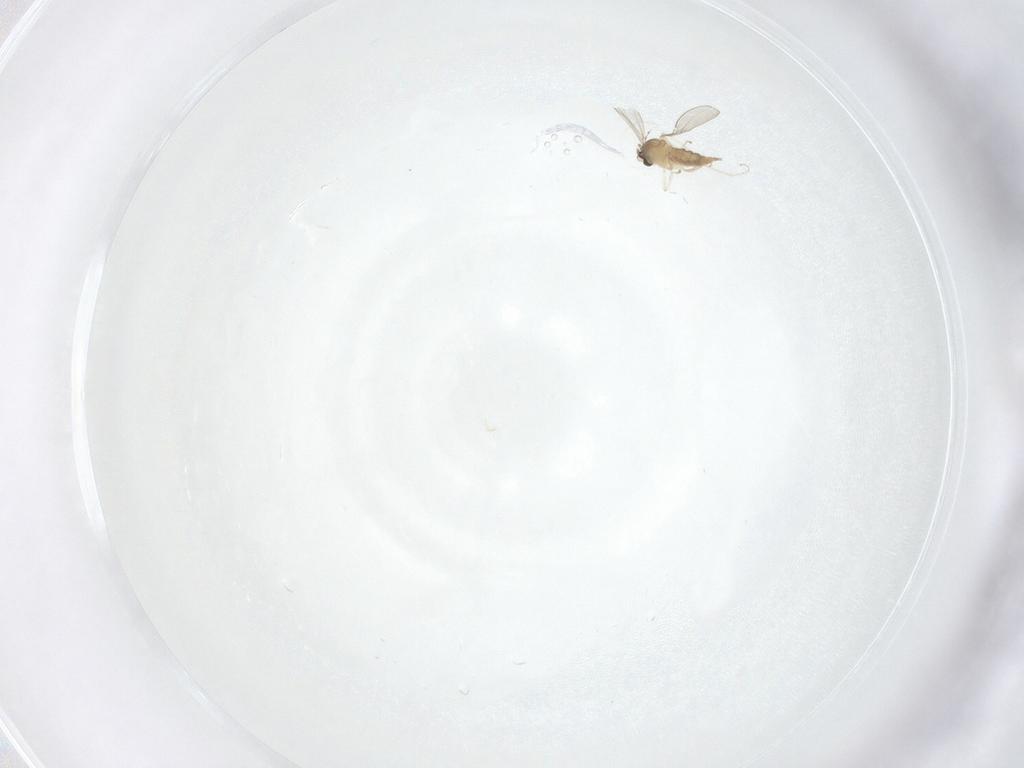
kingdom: Animalia
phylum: Arthropoda
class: Insecta
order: Diptera
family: Cecidomyiidae
